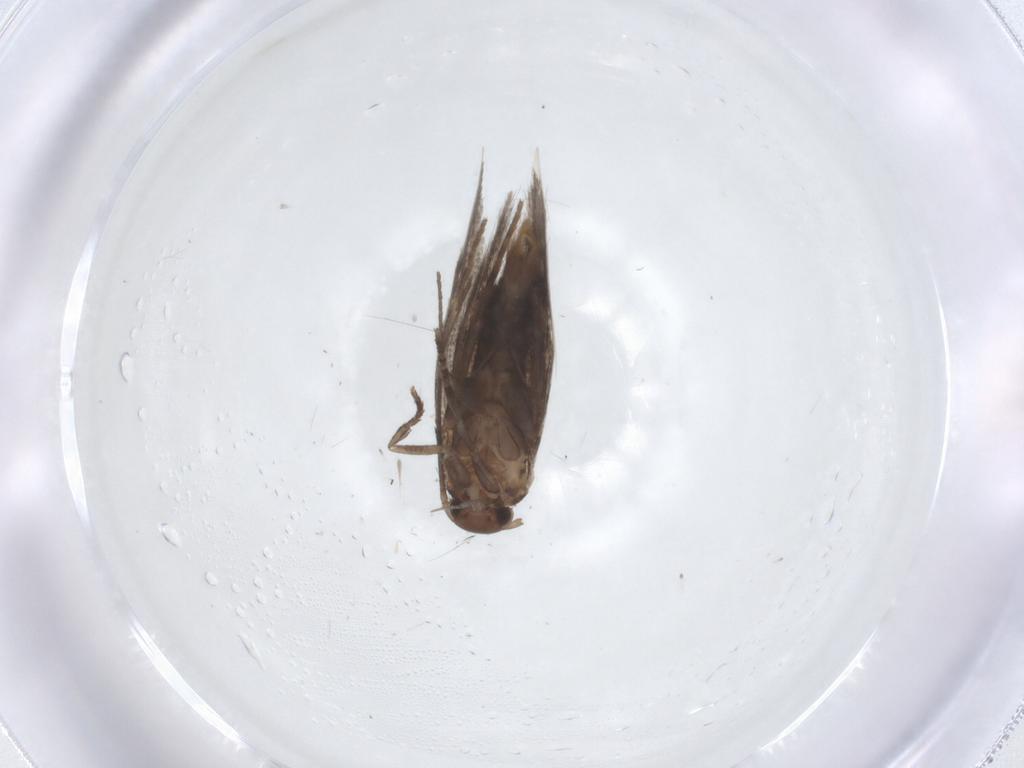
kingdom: Animalia
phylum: Arthropoda
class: Insecta
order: Lepidoptera
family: Elachistidae
